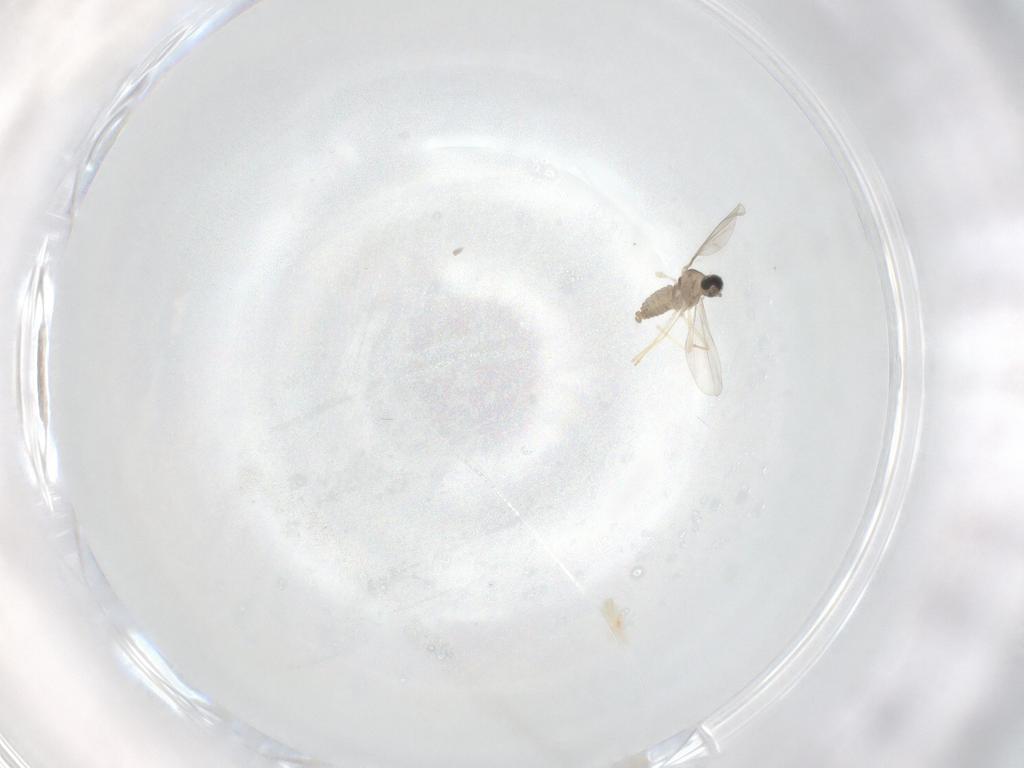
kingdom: Animalia
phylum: Arthropoda
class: Insecta
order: Diptera
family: Cecidomyiidae
